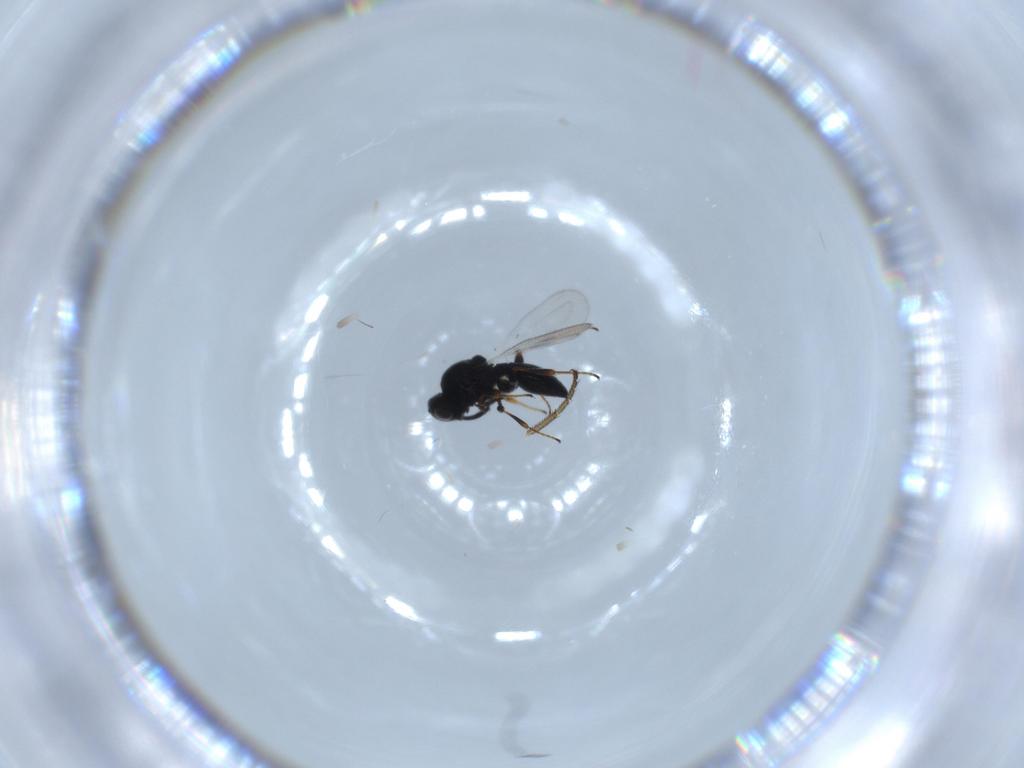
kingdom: Animalia
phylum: Arthropoda
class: Insecta
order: Hymenoptera
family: Platygastridae
